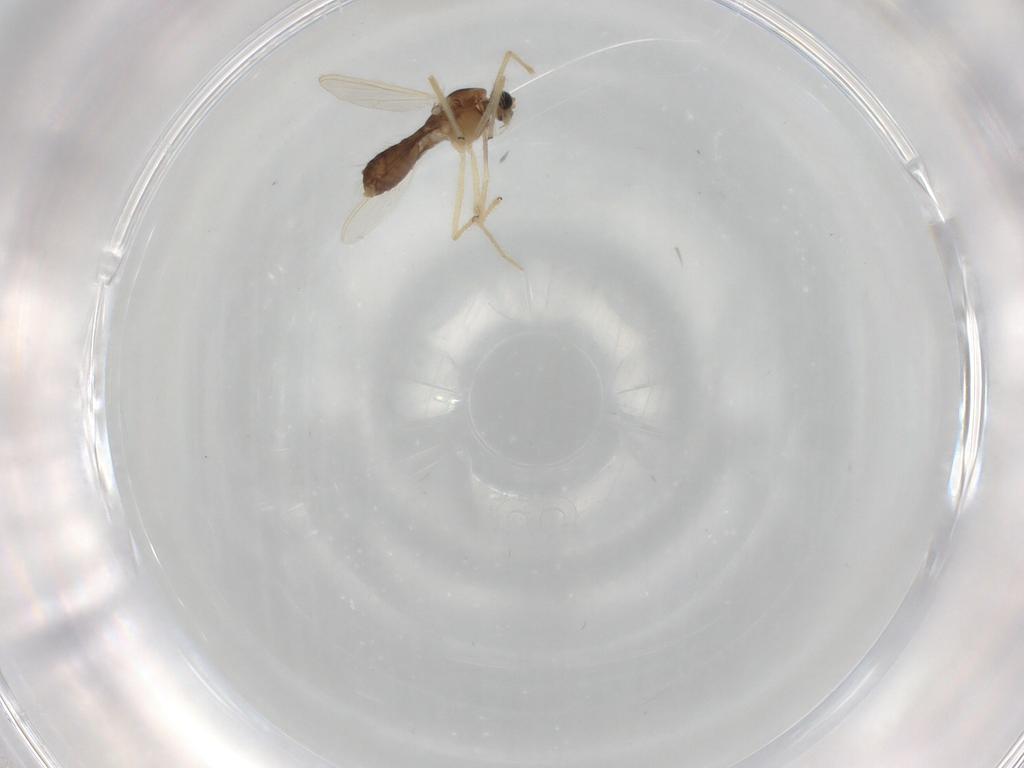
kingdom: Animalia
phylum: Arthropoda
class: Insecta
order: Diptera
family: Chironomidae
